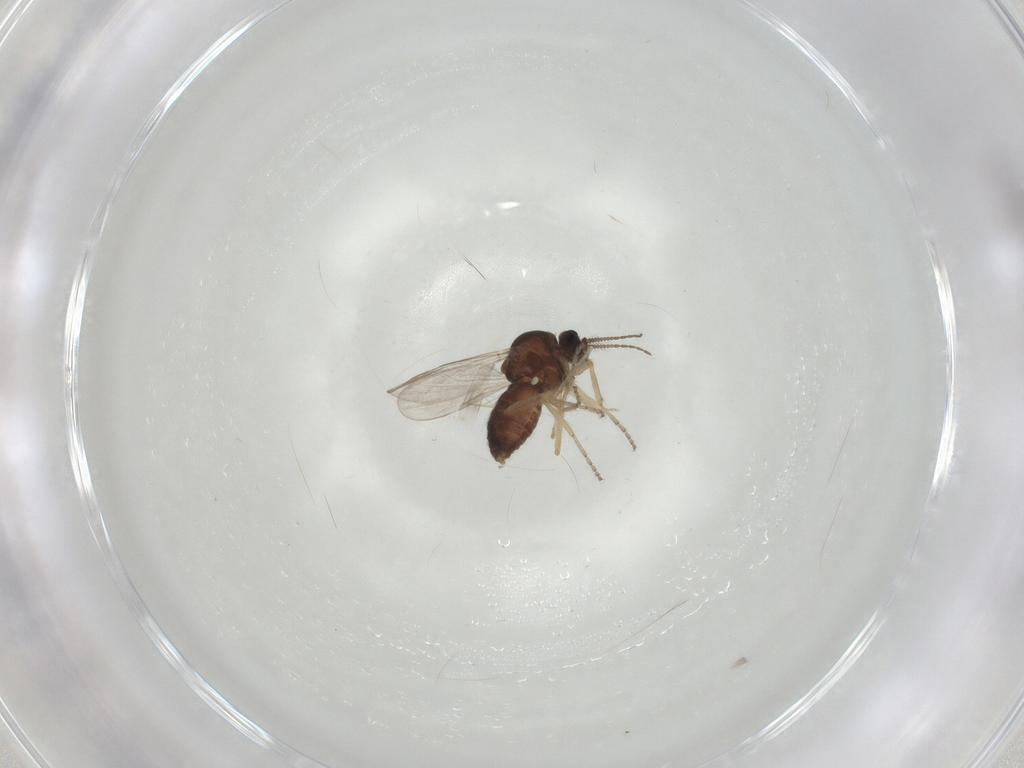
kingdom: Animalia
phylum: Arthropoda
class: Insecta
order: Diptera
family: Ceratopogonidae
